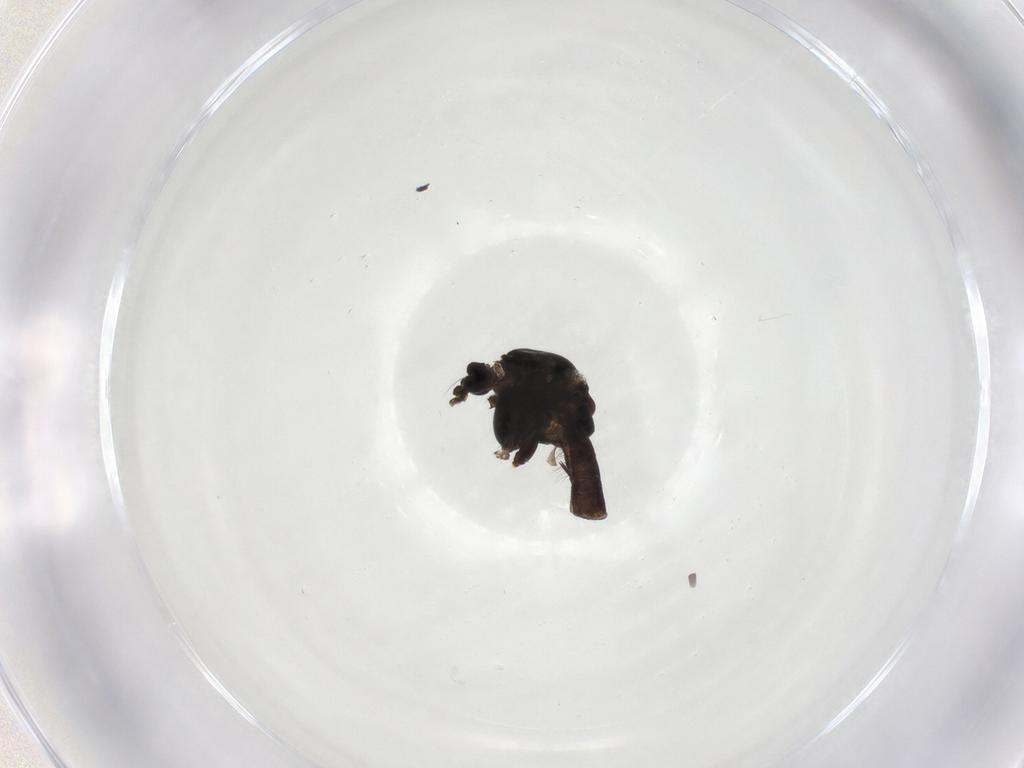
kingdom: Animalia
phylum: Arthropoda
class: Insecta
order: Diptera
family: Chironomidae
